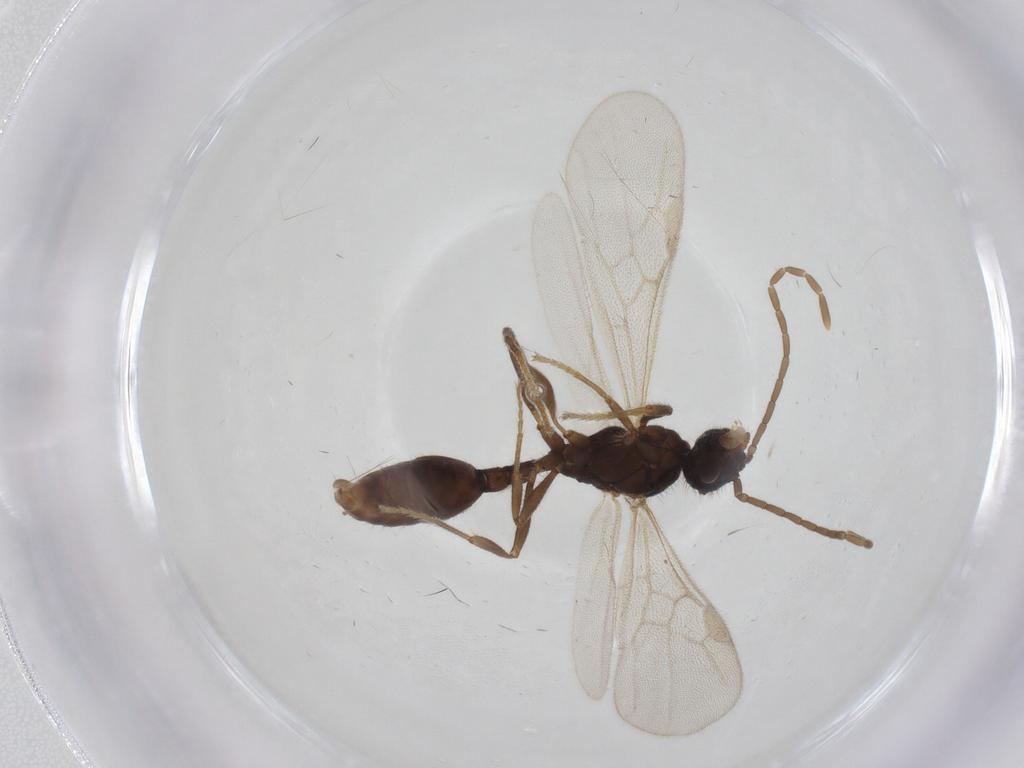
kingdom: Animalia
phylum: Arthropoda
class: Insecta
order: Hymenoptera
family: Formicidae
